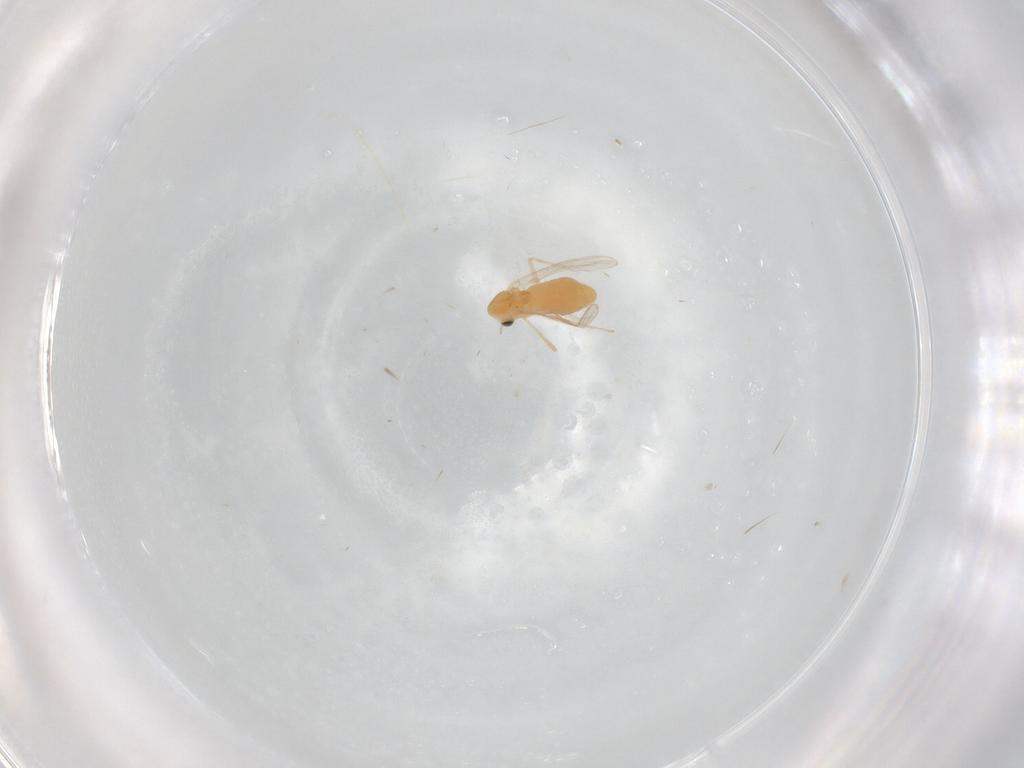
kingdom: Animalia
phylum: Arthropoda
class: Insecta
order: Diptera
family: Chironomidae
